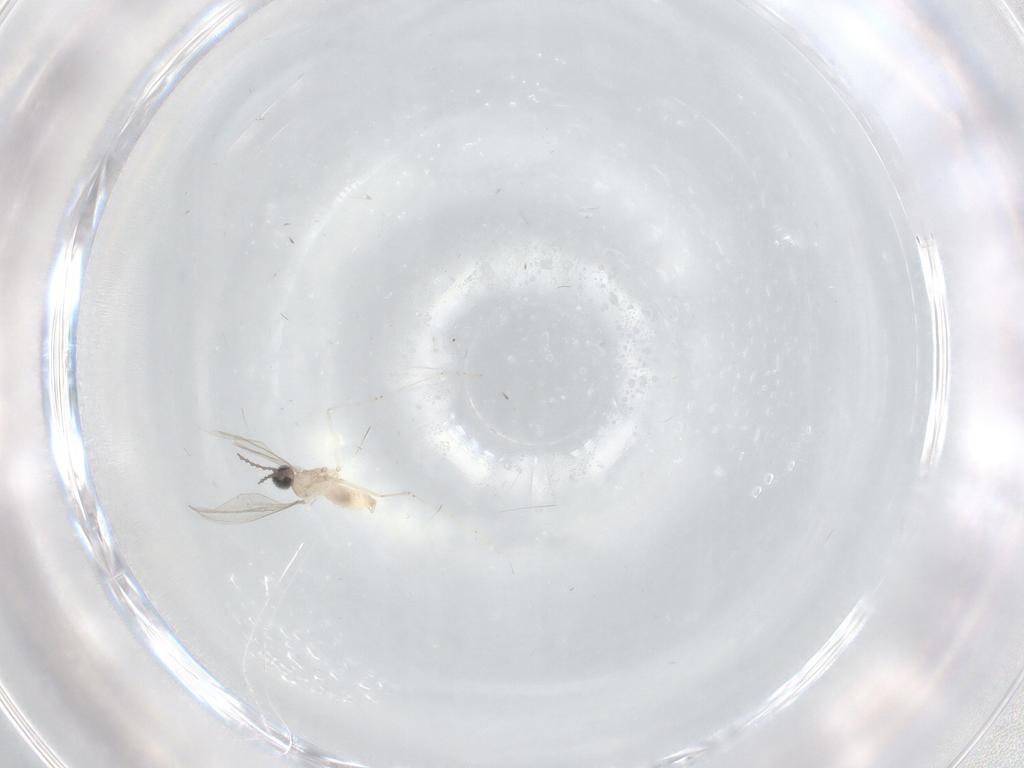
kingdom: Animalia
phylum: Arthropoda
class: Insecta
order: Diptera
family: Cecidomyiidae
